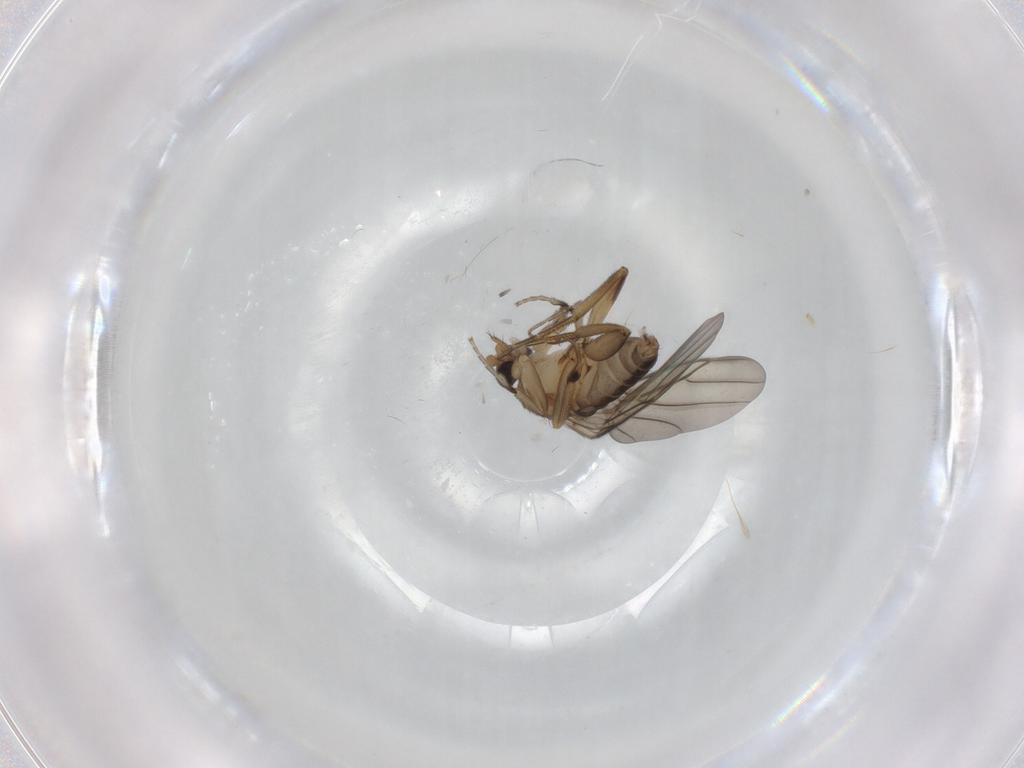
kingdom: Animalia
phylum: Arthropoda
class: Insecta
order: Diptera
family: Phoridae
